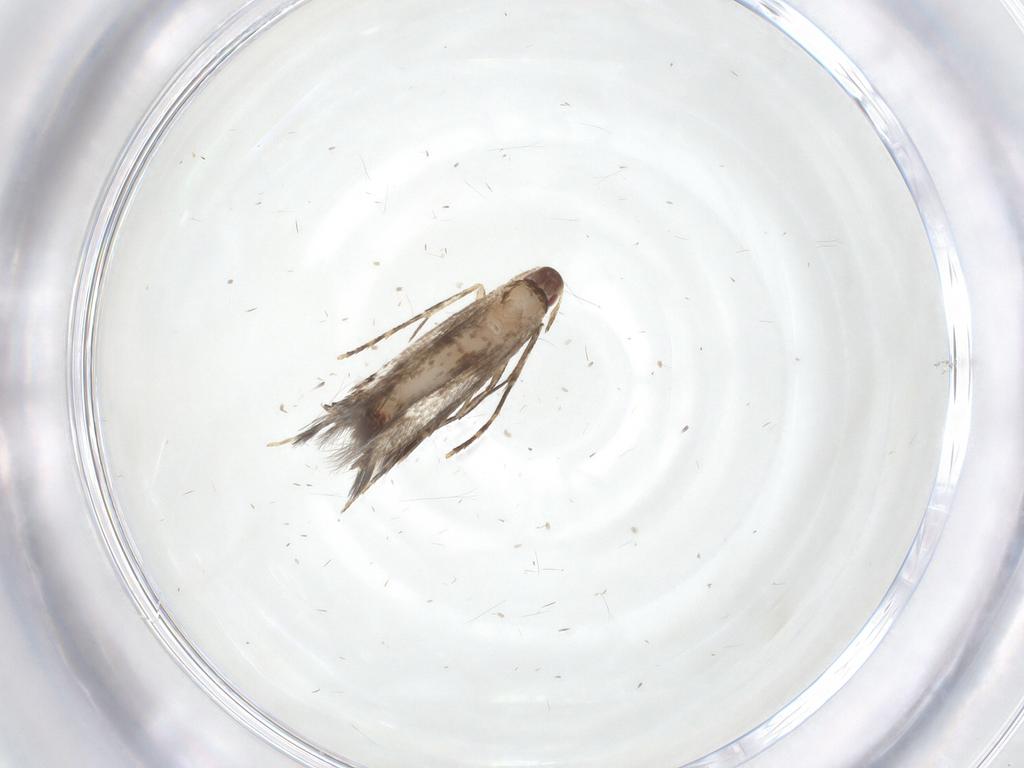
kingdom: Animalia
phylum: Arthropoda
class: Insecta
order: Lepidoptera
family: Cosmopterigidae
